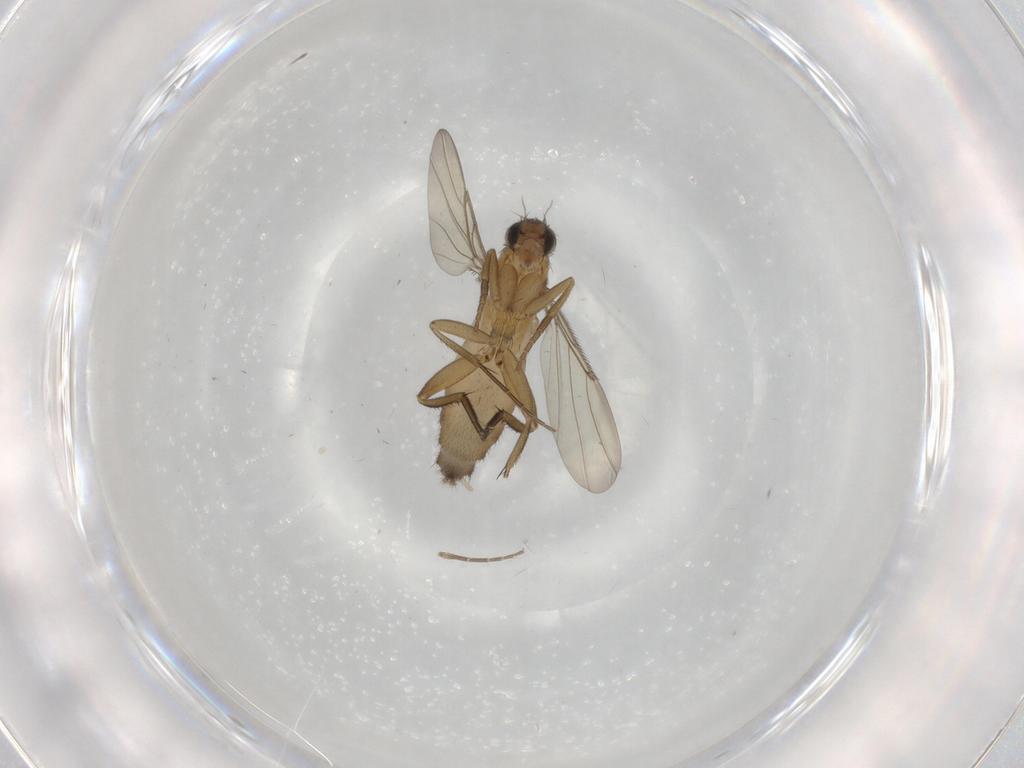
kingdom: Animalia
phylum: Arthropoda
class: Insecta
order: Diptera
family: Phoridae
